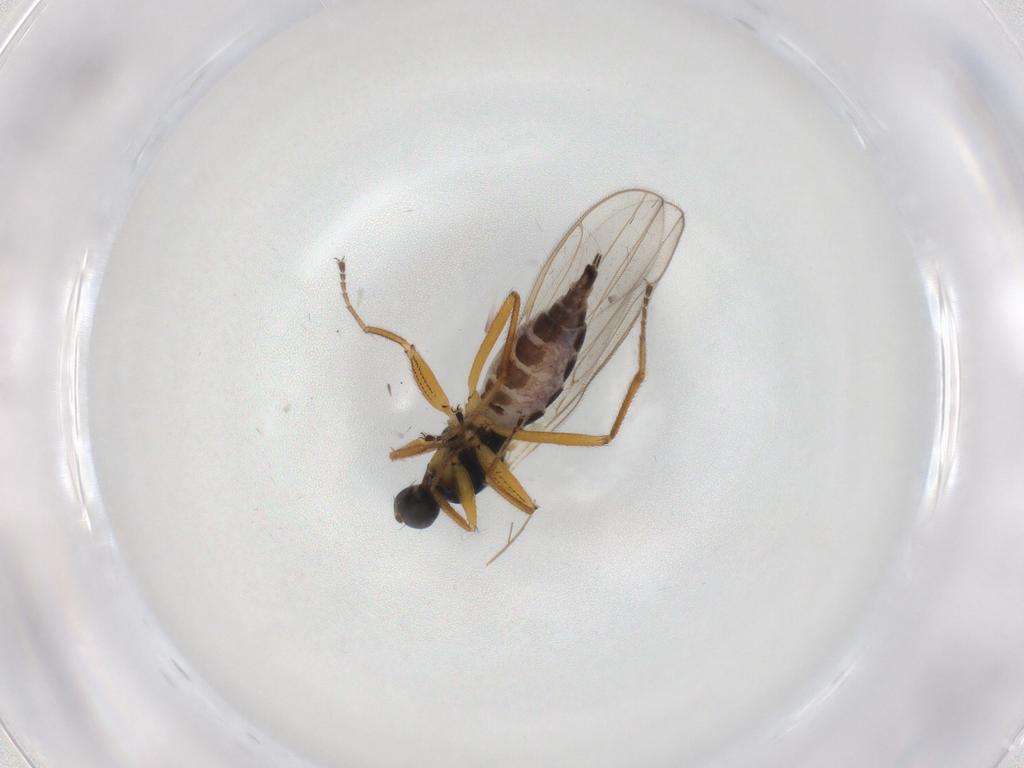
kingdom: Animalia
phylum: Arthropoda
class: Insecta
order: Diptera
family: Hybotidae
